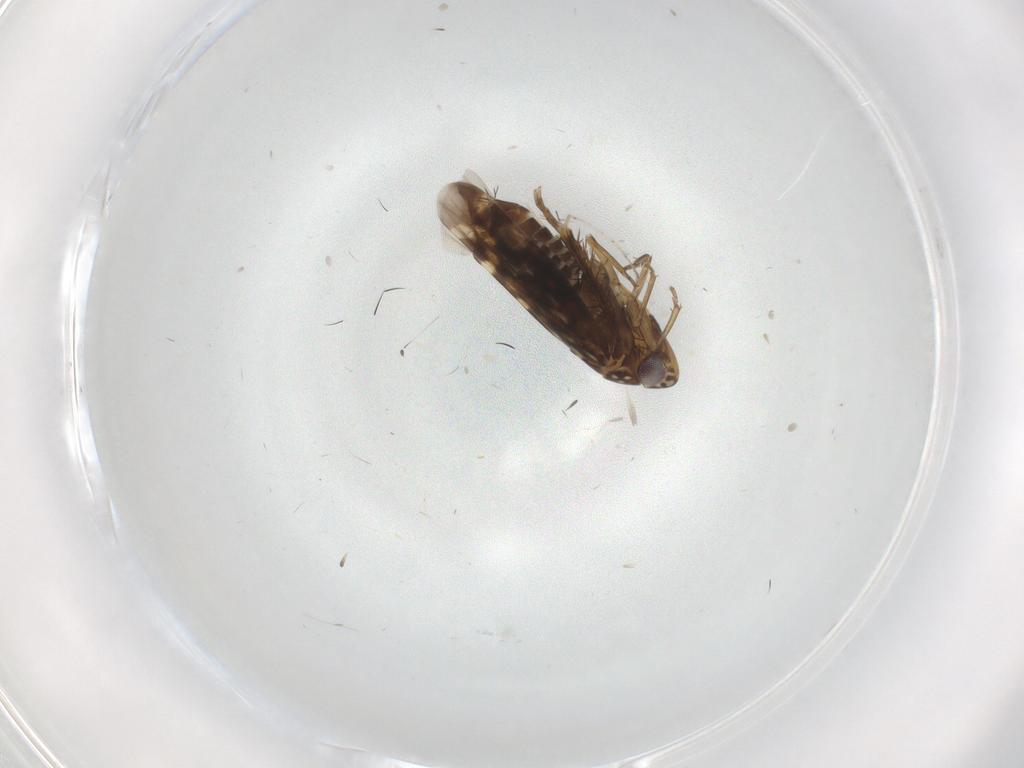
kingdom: Animalia
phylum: Arthropoda
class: Insecta
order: Hemiptera
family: Cicadellidae
